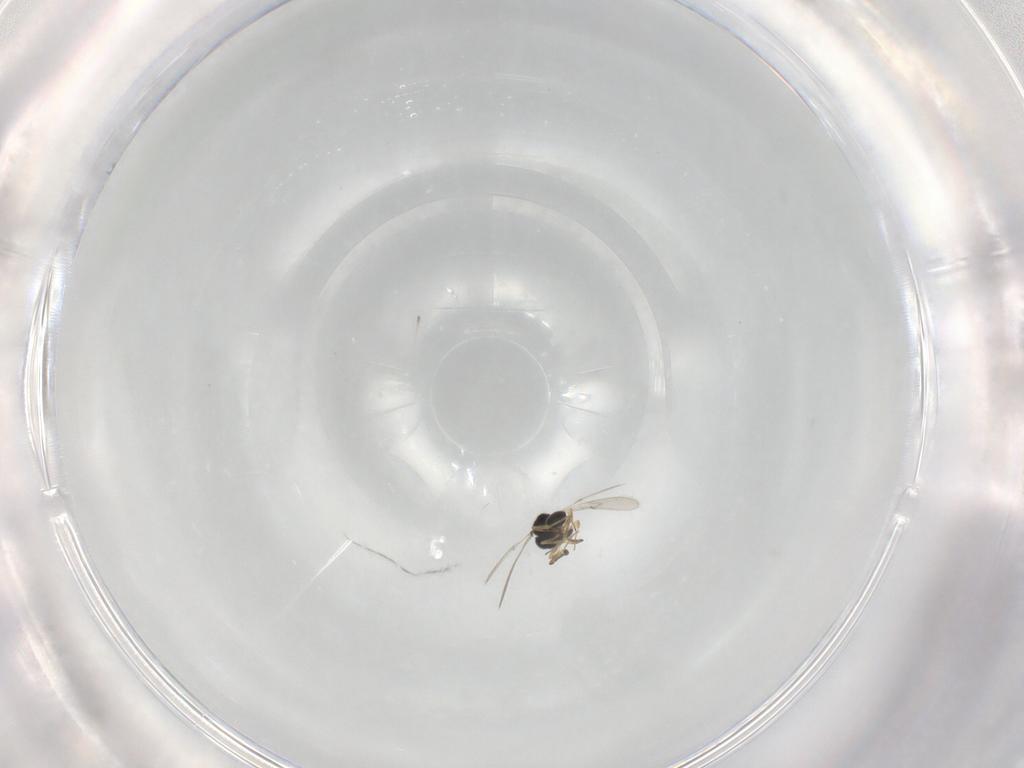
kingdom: Animalia
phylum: Arthropoda
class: Insecta
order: Hymenoptera
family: Scelionidae
